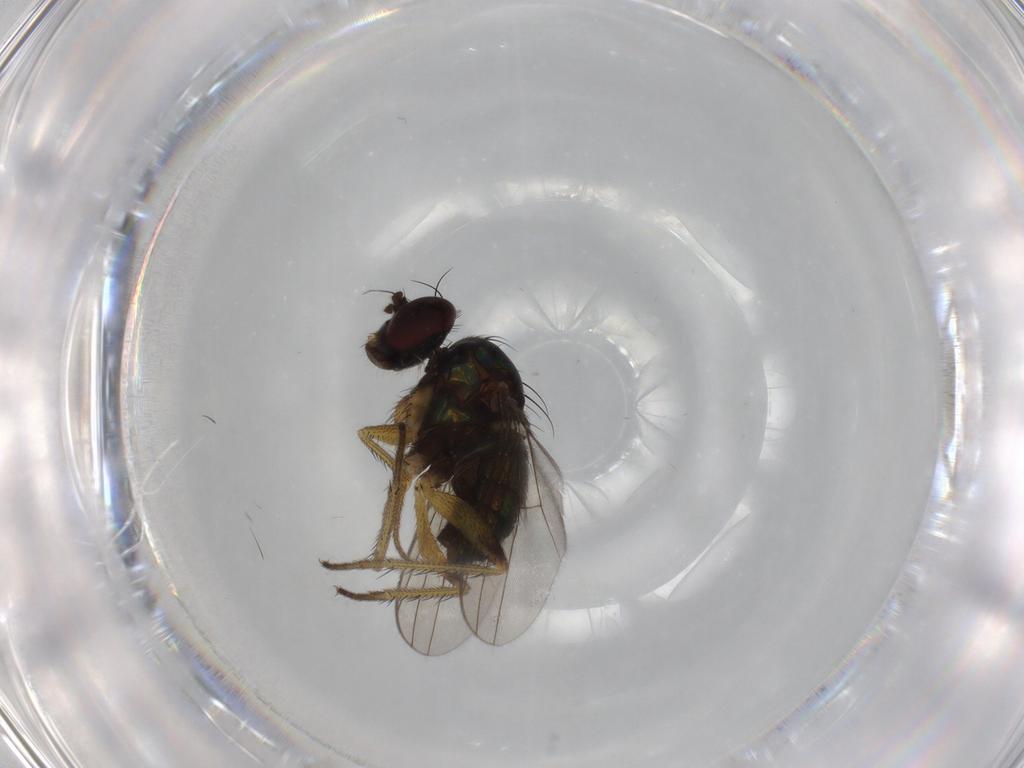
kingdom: Animalia
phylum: Arthropoda
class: Insecta
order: Diptera
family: Dolichopodidae
